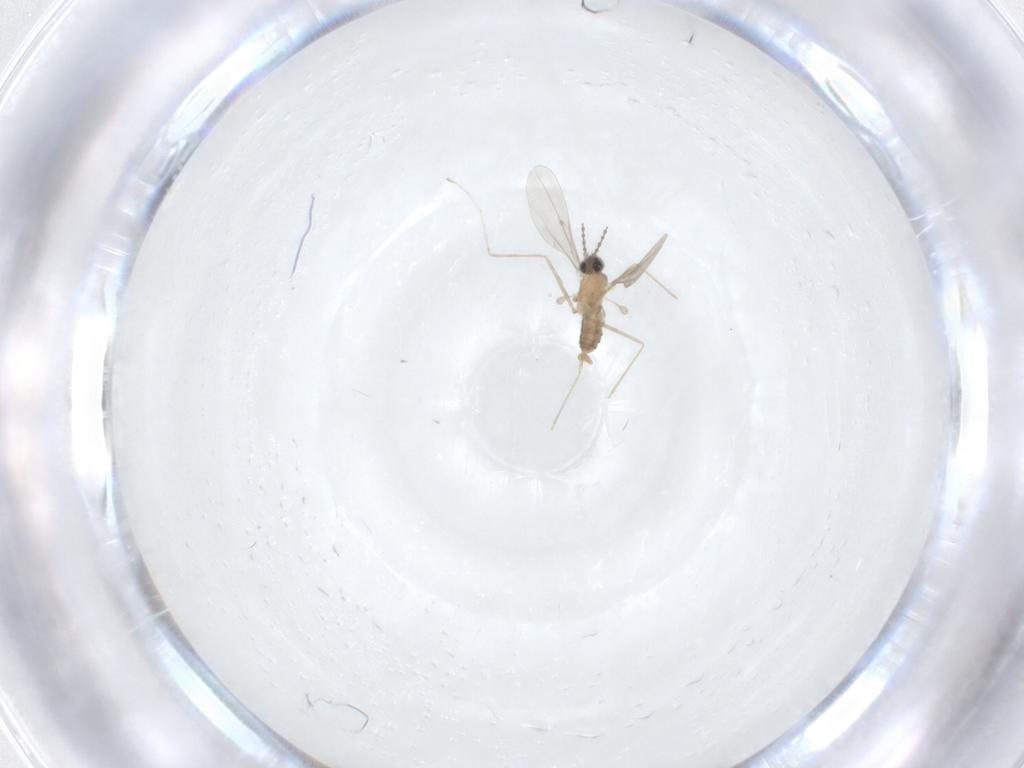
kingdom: Animalia
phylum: Arthropoda
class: Insecta
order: Diptera
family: Cecidomyiidae
